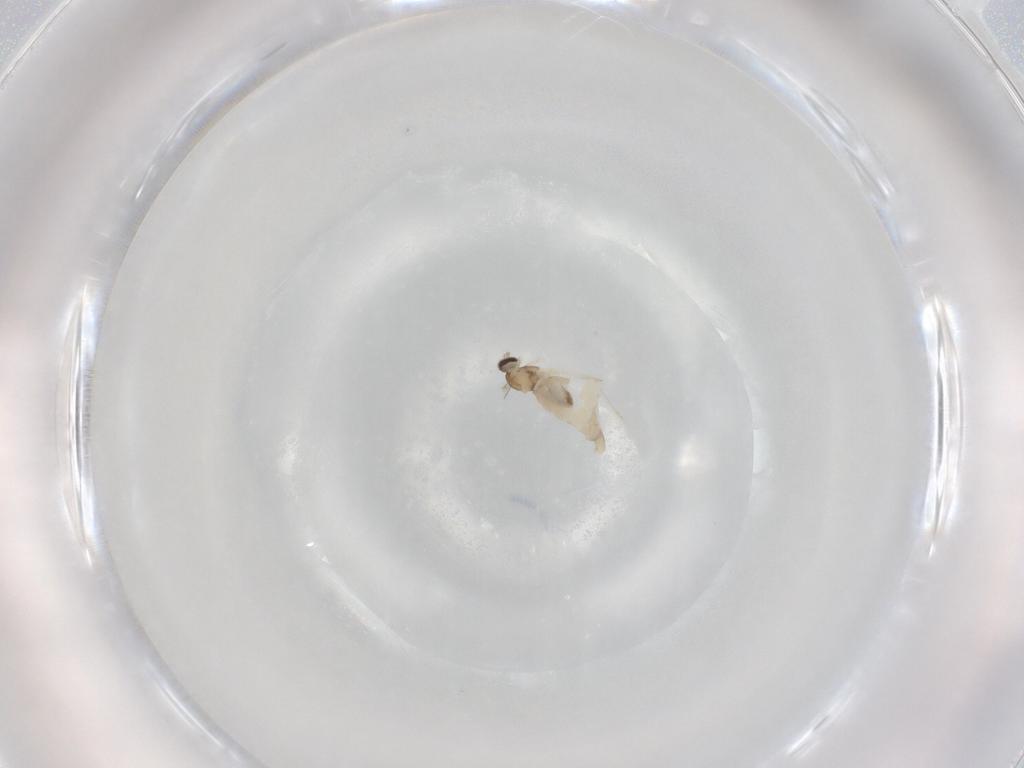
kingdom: Animalia
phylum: Arthropoda
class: Insecta
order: Diptera
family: Cecidomyiidae
